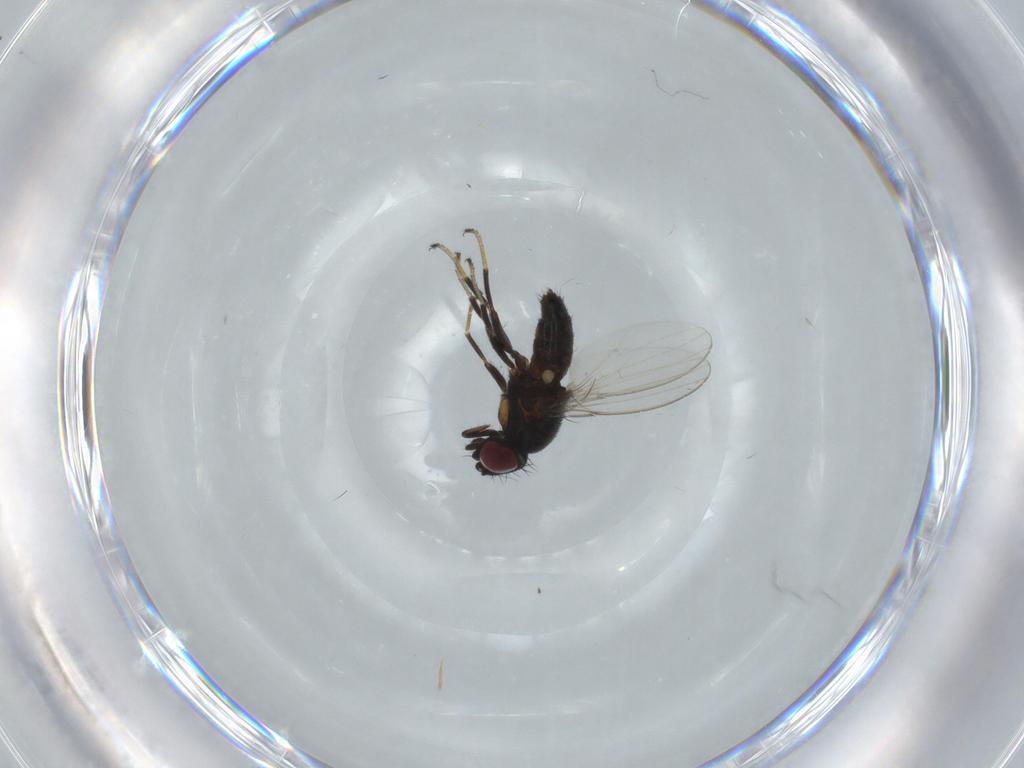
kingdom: Animalia
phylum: Arthropoda
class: Insecta
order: Diptera
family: Milichiidae
